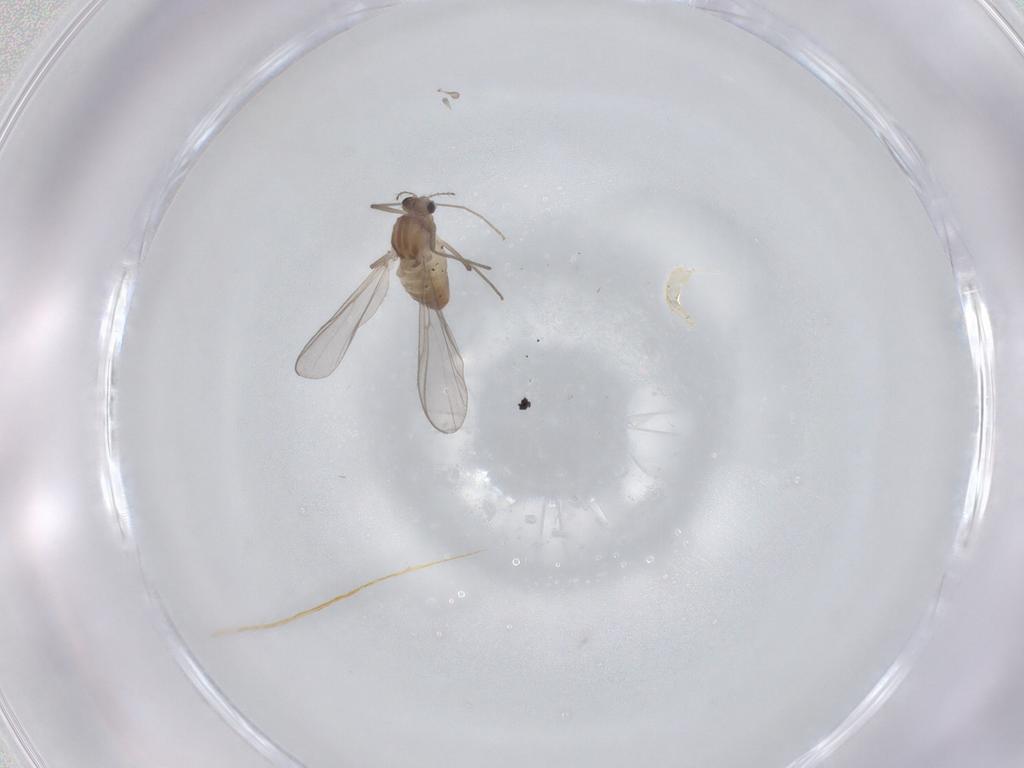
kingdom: Animalia
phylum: Arthropoda
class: Insecta
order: Diptera
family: Chironomidae
